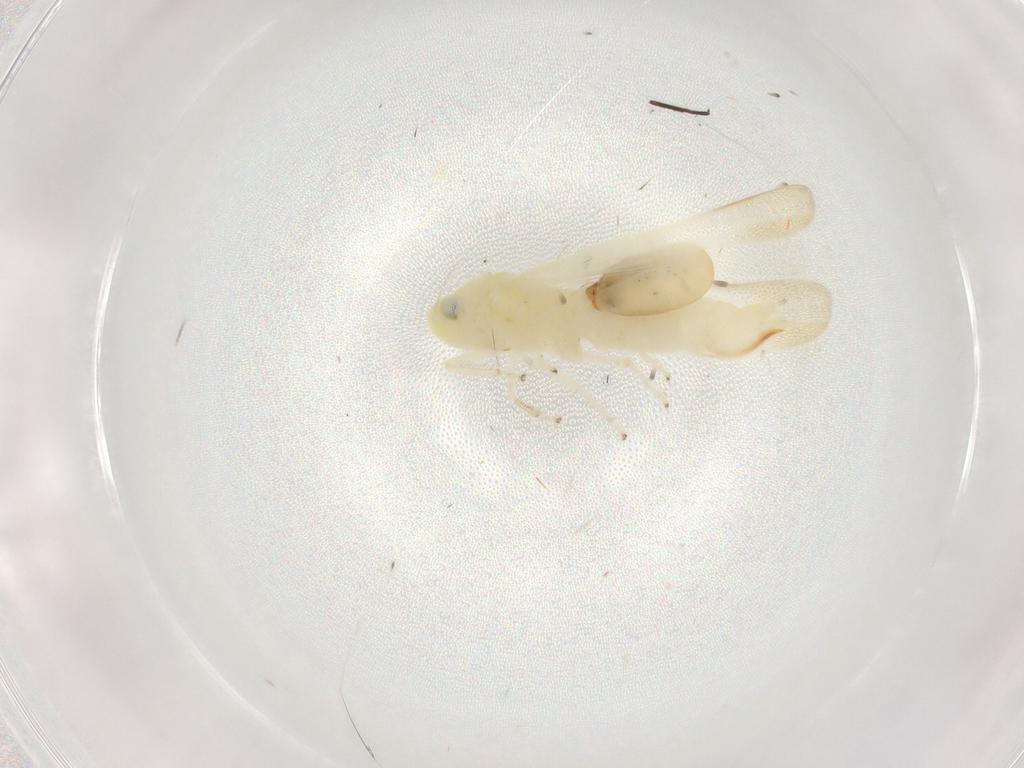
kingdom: Animalia
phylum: Arthropoda
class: Insecta
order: Hemiptera
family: Cicadellidae
